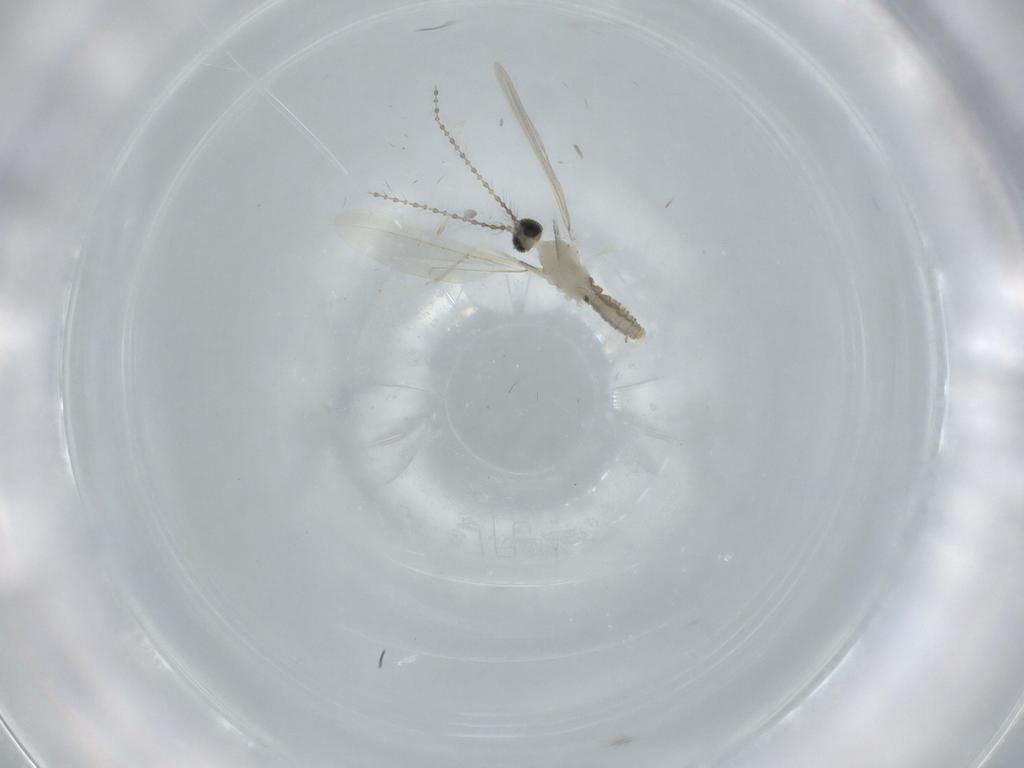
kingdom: Animalia
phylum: Arthropoda
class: Insecta
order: Diptera
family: Cecidomyiidae
